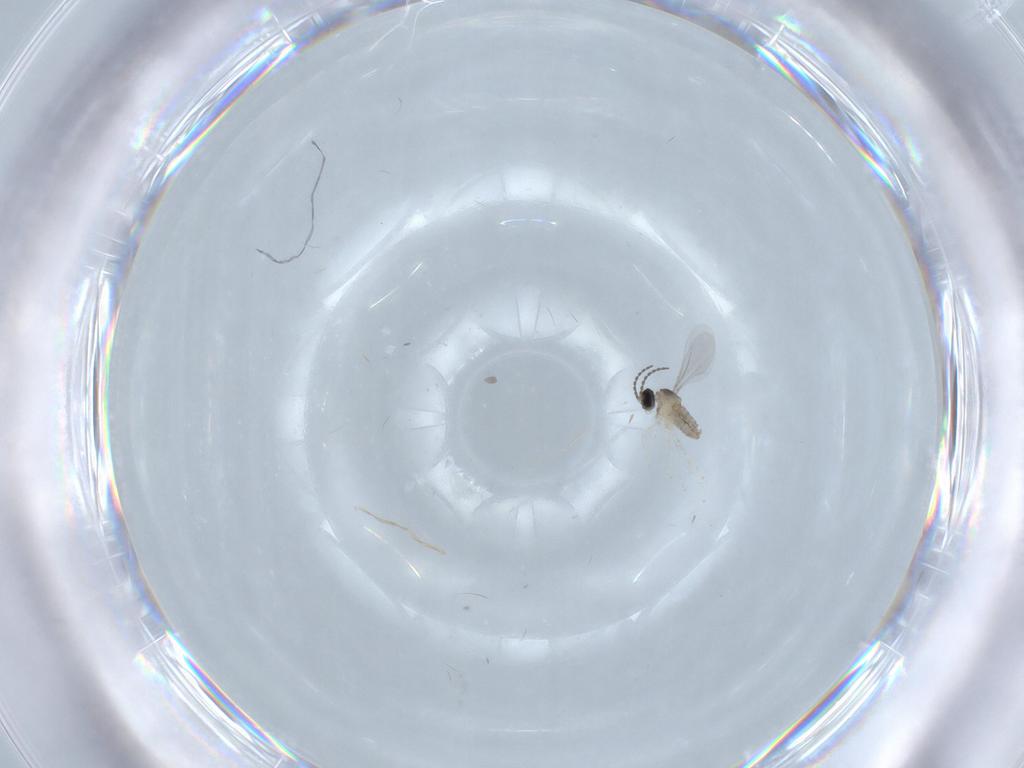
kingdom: Animalia
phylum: Arthropoda
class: Insecta
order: Diptera
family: Cecidomyiidae
